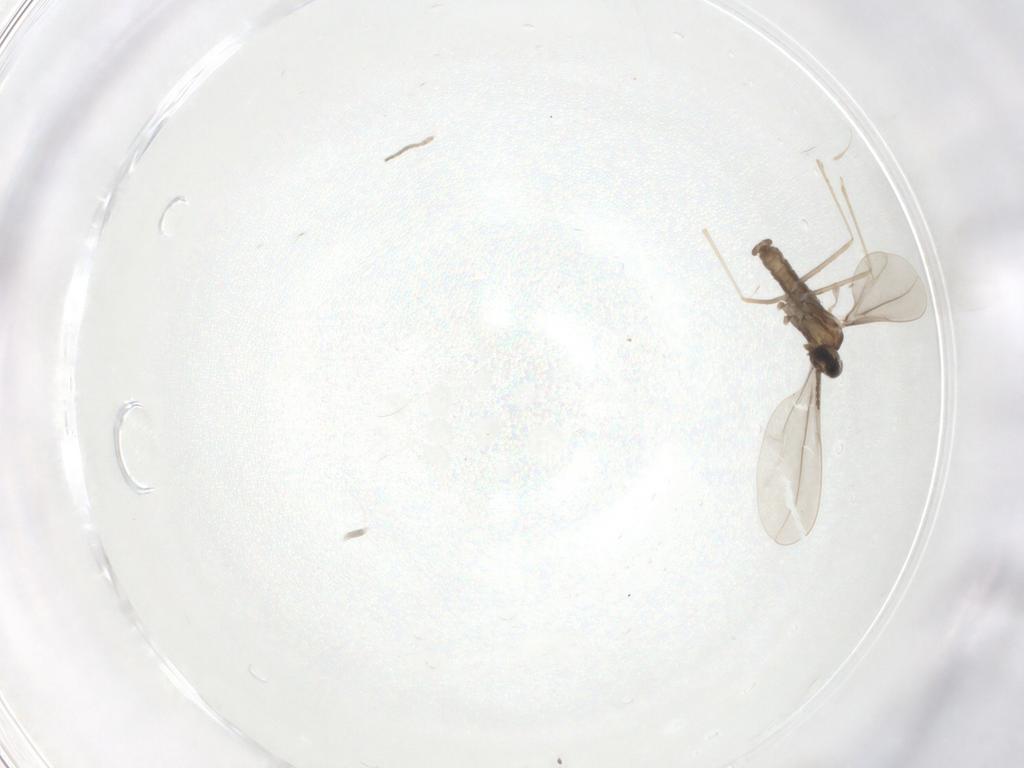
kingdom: Animalia
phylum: Arthropoda
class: Insecta
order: Diptera
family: Cecidomyiidae
